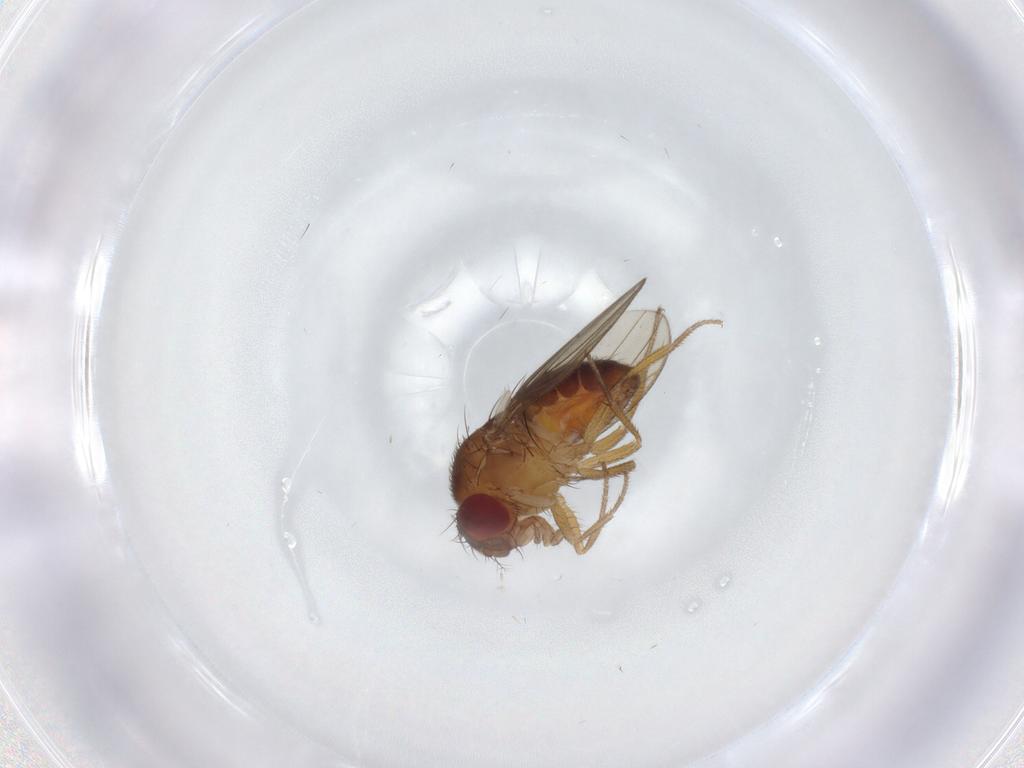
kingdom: Animalia
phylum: Arthropoda
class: Insecta
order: Diptera
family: Drosophilidae
